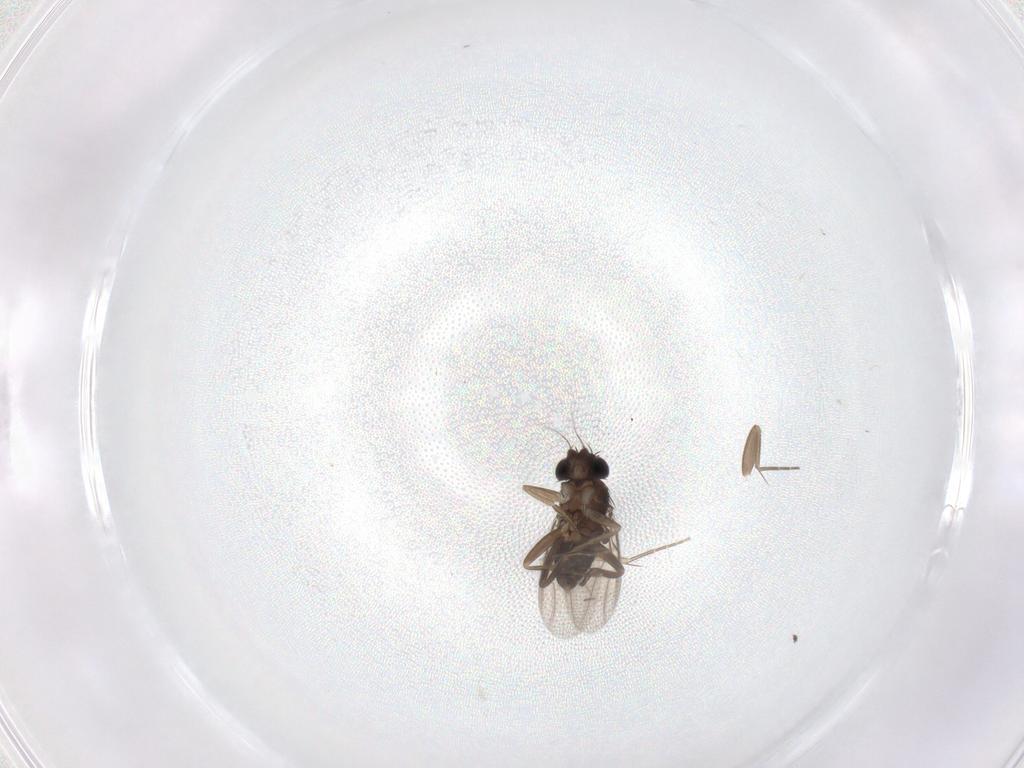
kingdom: Animalia
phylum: Arthropoda
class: Insecta
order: Diptera
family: Phoridae
